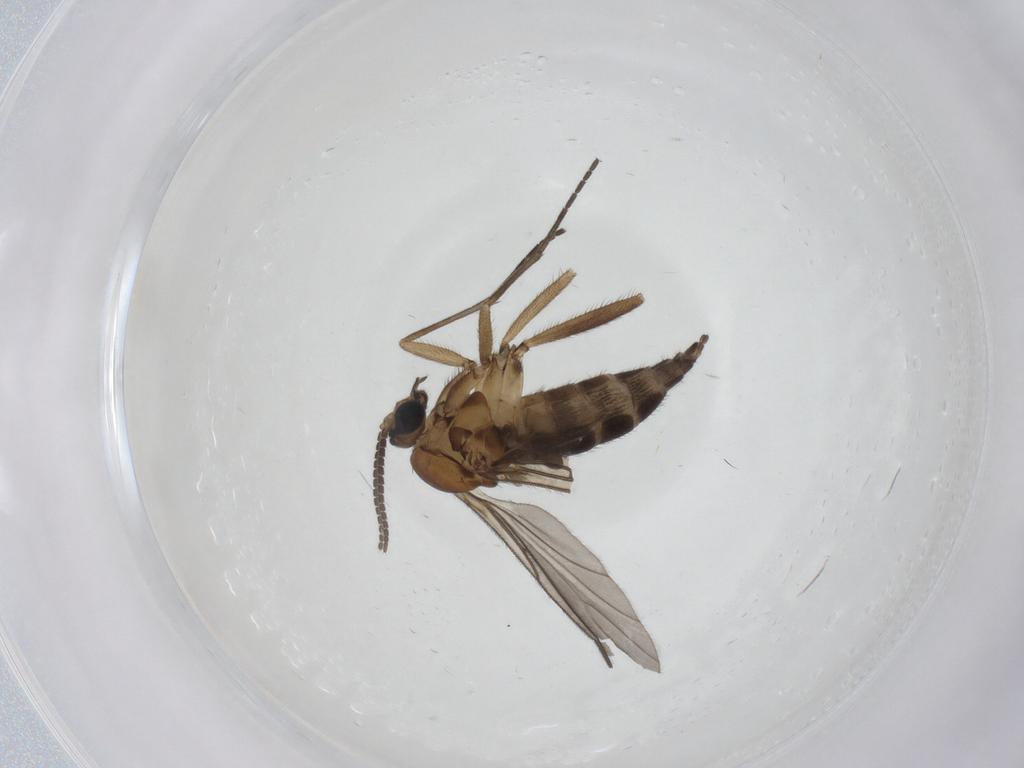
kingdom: Animalia
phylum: Arthropoda
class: Insecta
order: Diptera
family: Sciaridae
